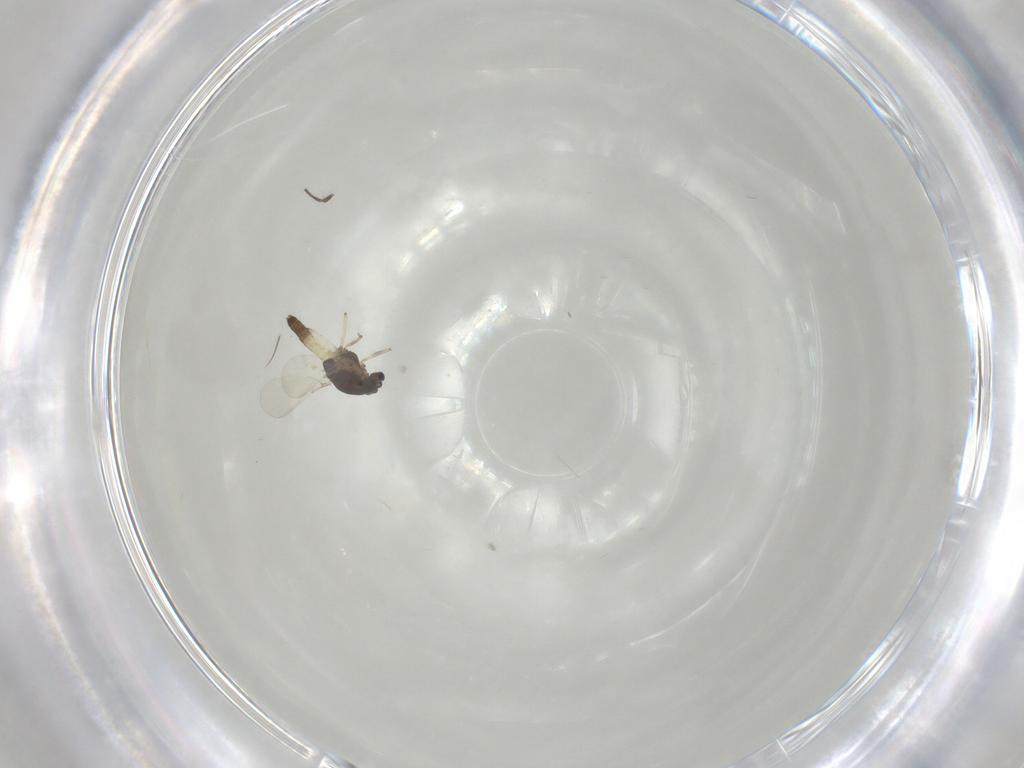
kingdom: Animalia
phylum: Arthropoda
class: Insecta
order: Diptera
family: Chironomidae
